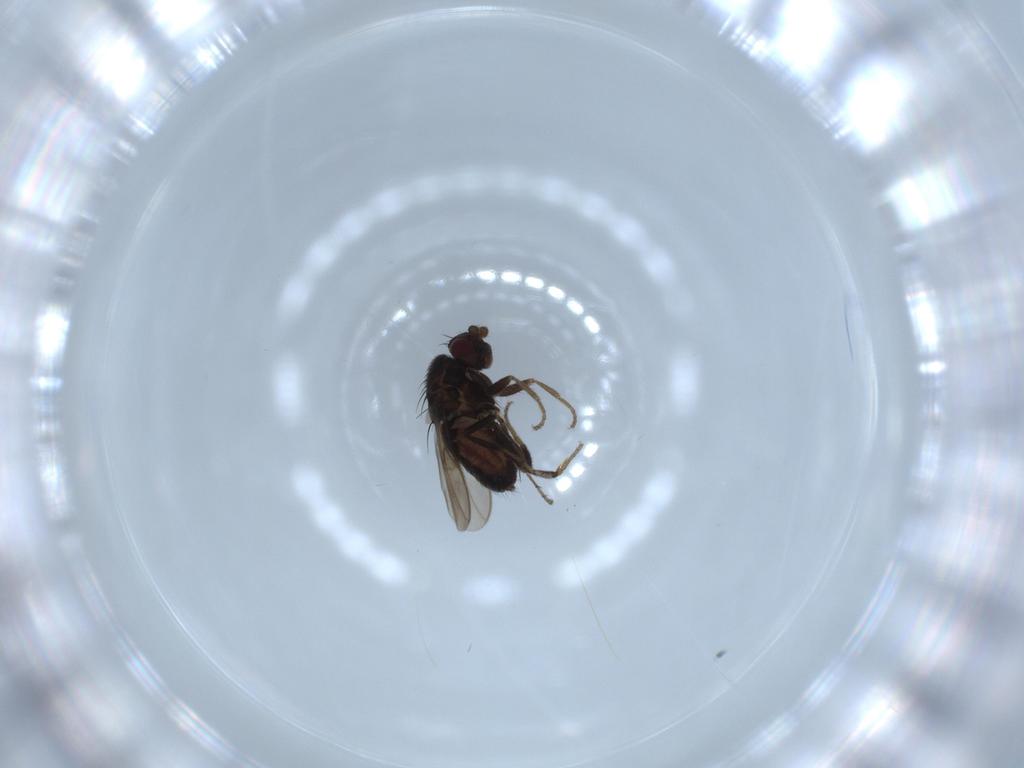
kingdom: Animalia
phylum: Arthropoda
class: Insecta
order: Diptera
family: Sphaeroceridae
